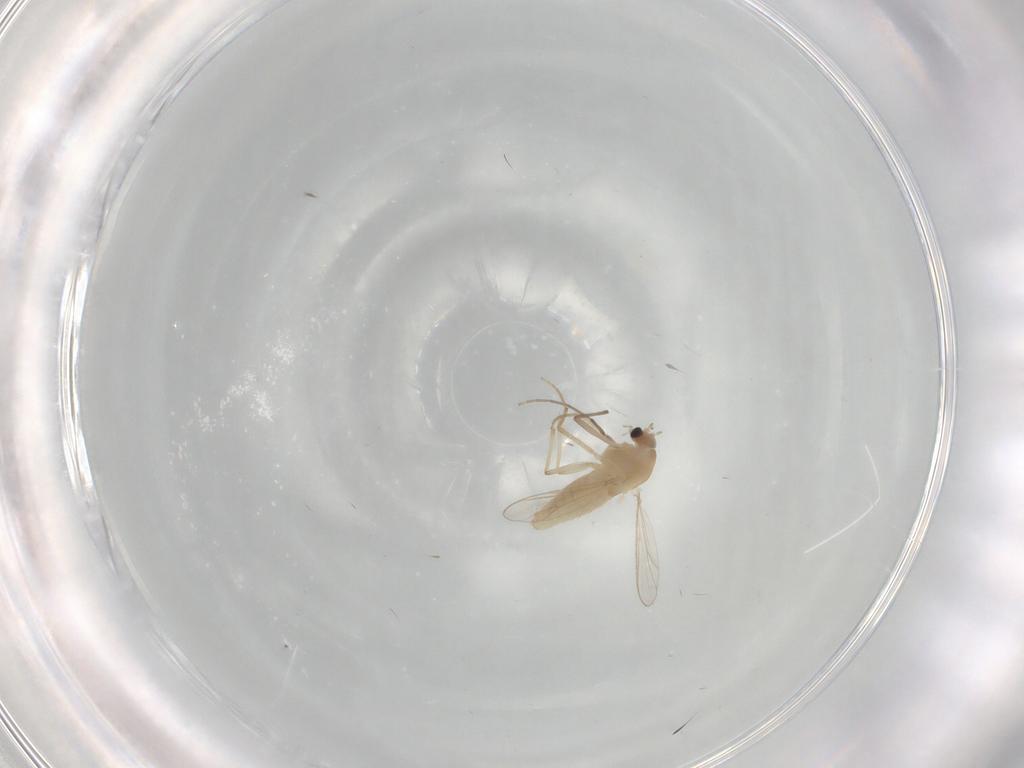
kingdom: Animalia
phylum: Arthropoda
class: Insecta
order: Diptera
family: Chironomidae
